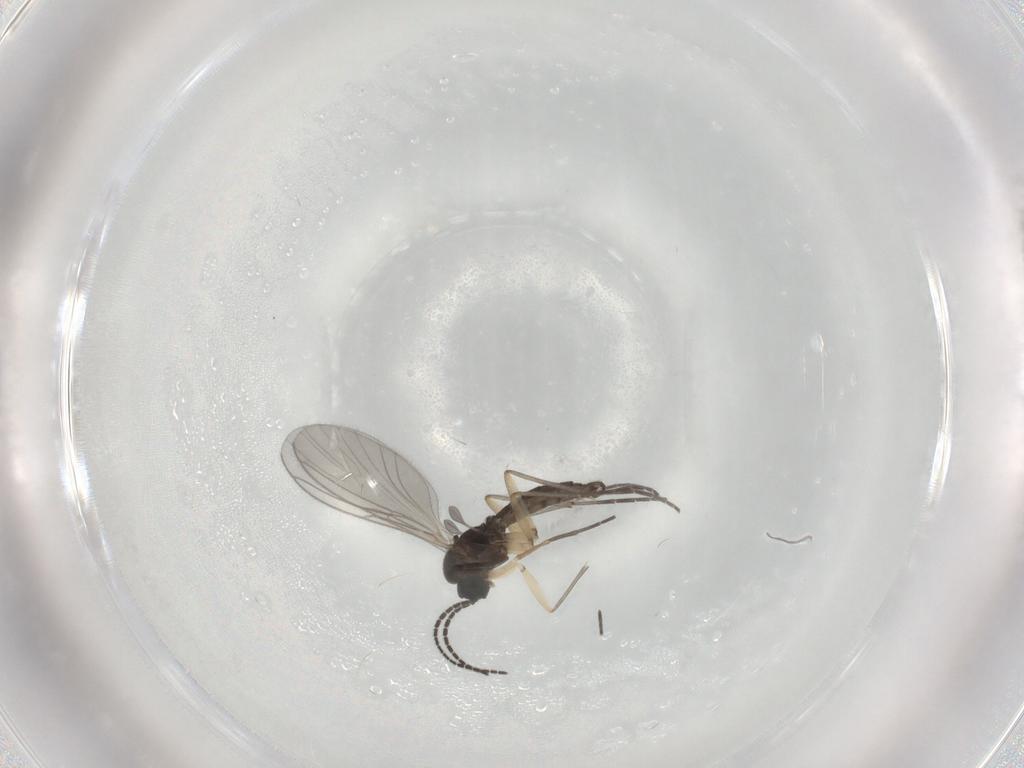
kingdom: Animalia
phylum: Arthropoda
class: Insecta
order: Diptera
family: Sciaridae
